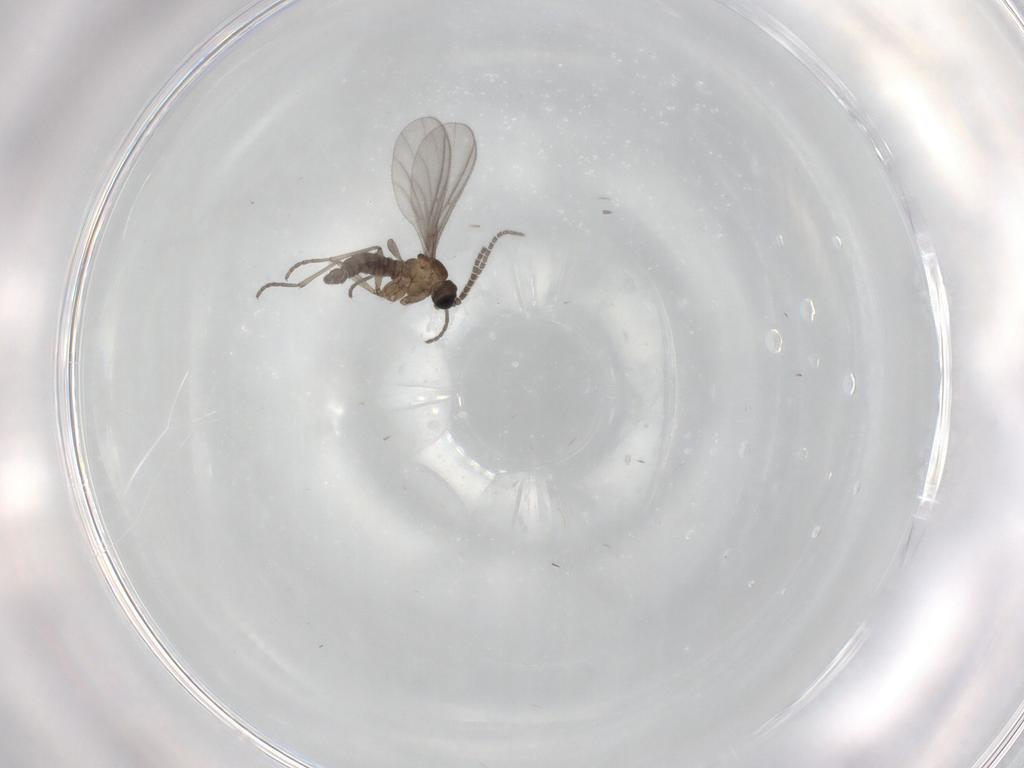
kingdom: Animalia
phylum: Arthropoda
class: Insecta
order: Diptera
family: Sciaridae
